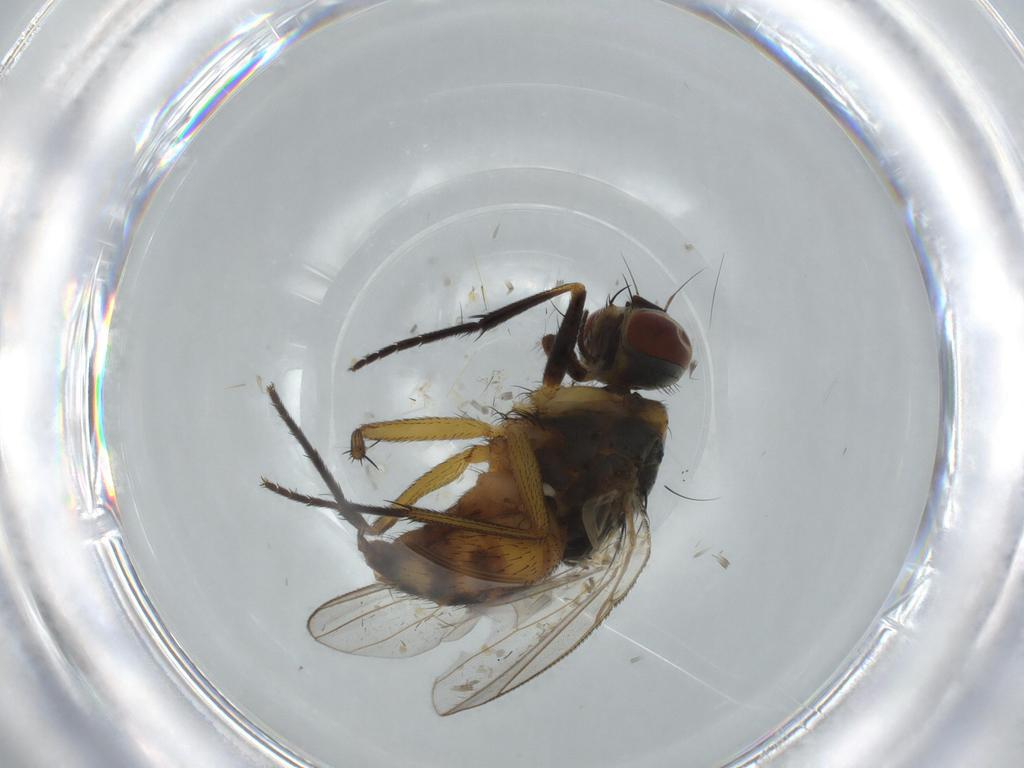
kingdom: Animalia
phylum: Arthropoda
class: Insecta
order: Diptera
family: Muscidae
